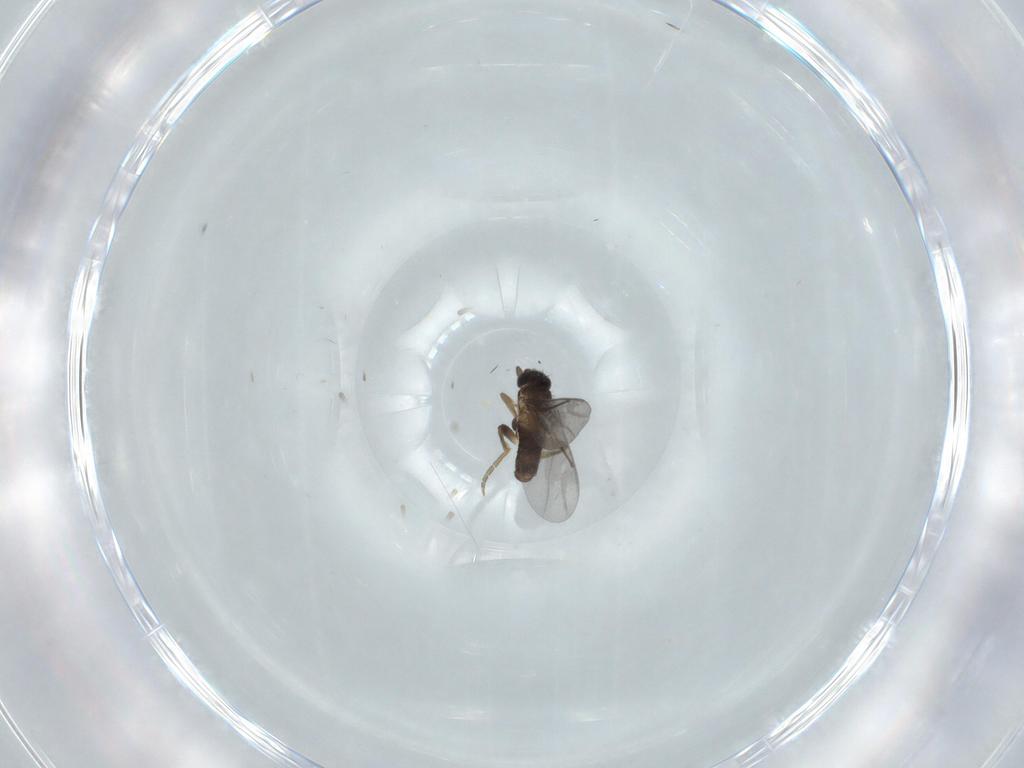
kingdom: Animalia
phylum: Arthropoda
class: Insecta
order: Diptera
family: Phoridae
